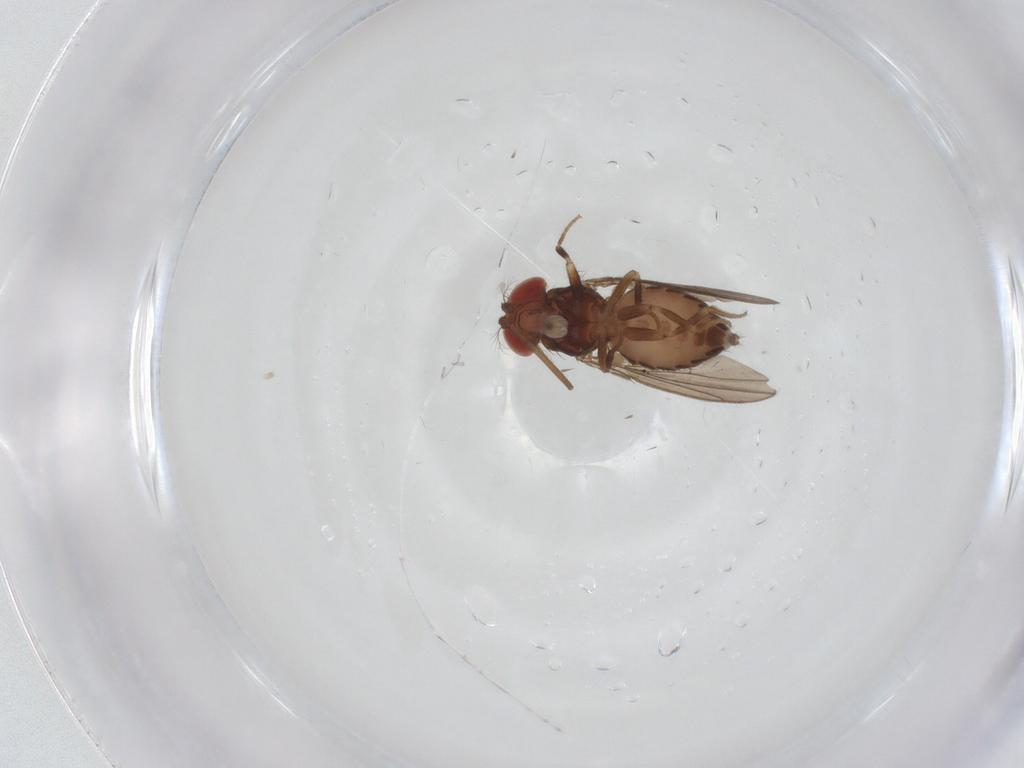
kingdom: Animalia
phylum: Arthropoda
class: Insecta
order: Diptera
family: Drosophilidae
